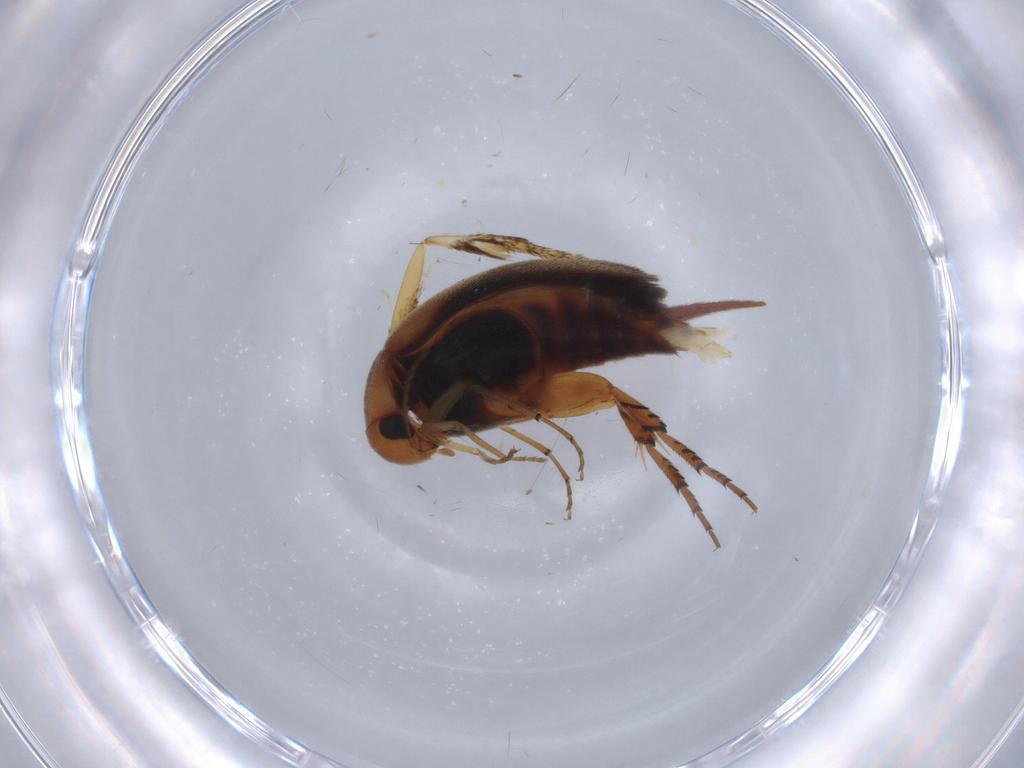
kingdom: Animalia
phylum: Arthropoda
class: Insecta
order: Coleoptera
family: Mordellidae
